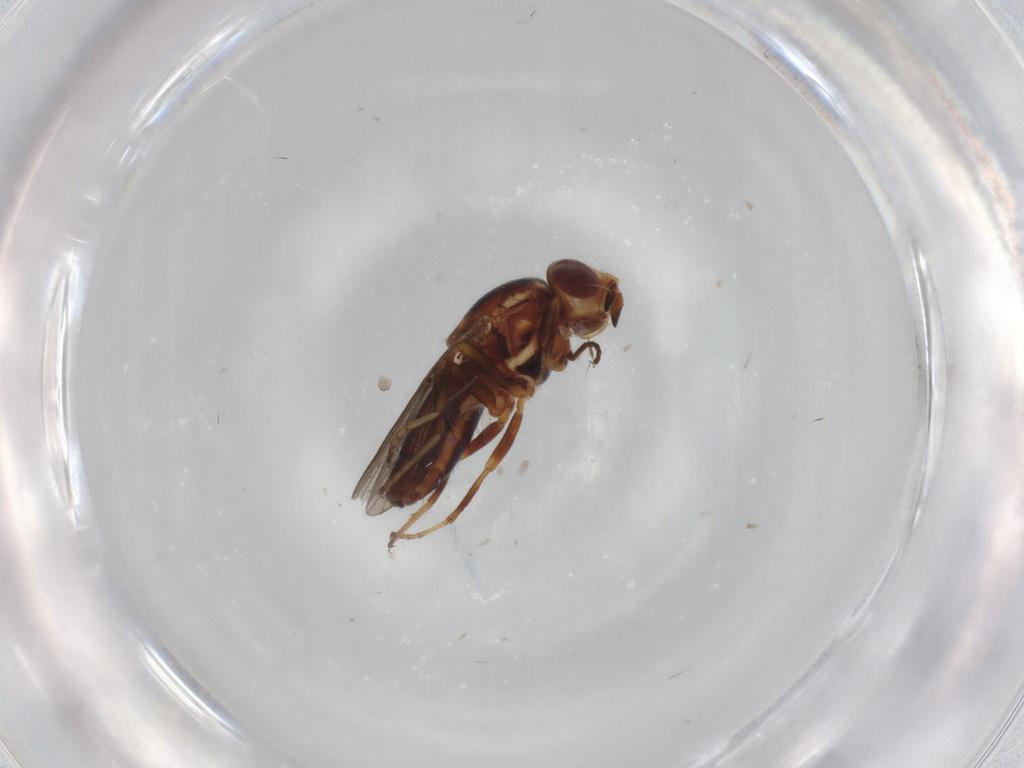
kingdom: Animalia
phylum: Arthropoda
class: Insecta
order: Diptera
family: Chloropidae
